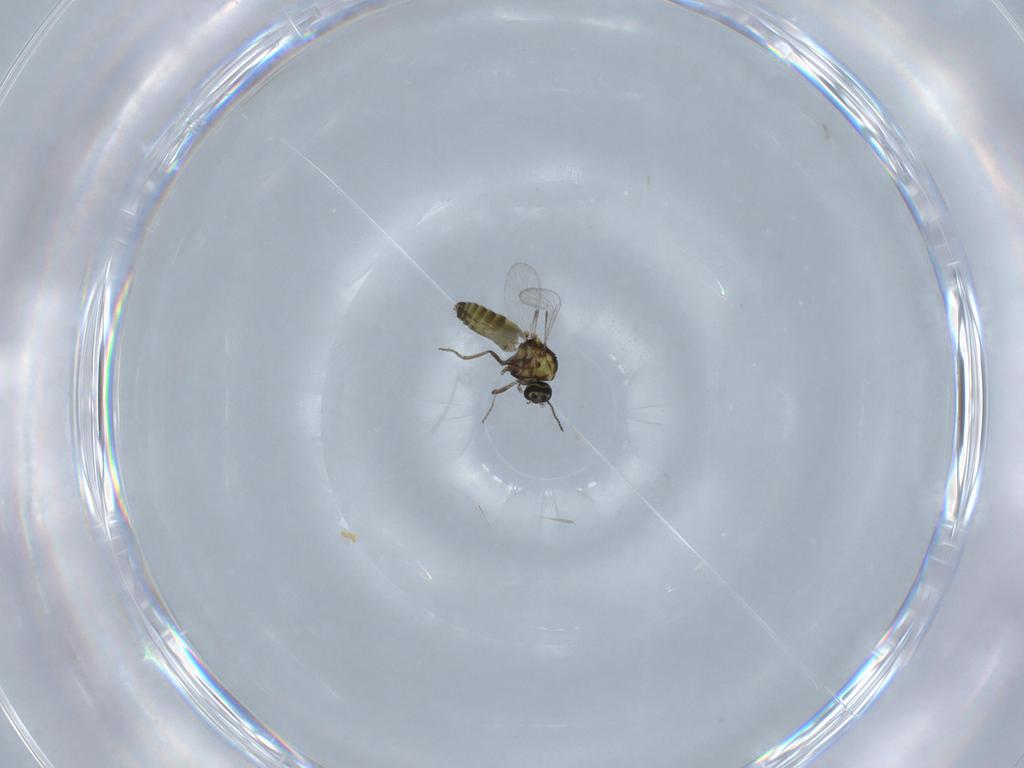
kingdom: Animalia
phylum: Arthropoda
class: Insecta
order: Diptera
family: Ceratopogonidae
